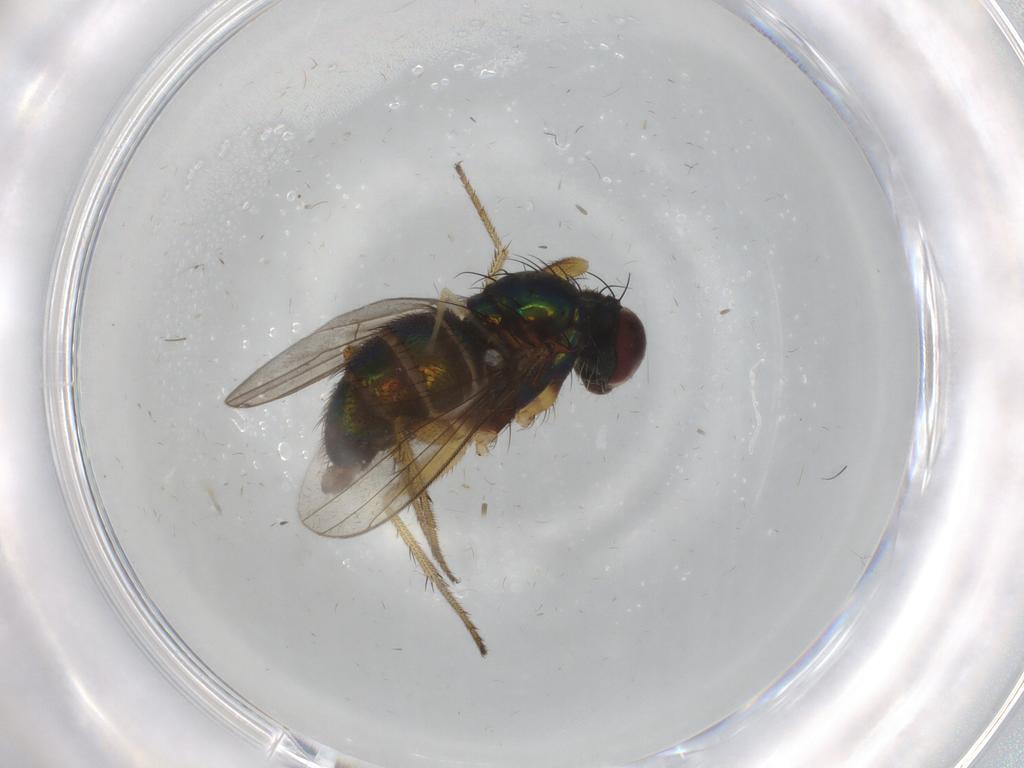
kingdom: Animalia
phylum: Arthropoda
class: Insecta
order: Diptera
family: Dolichopodidae
